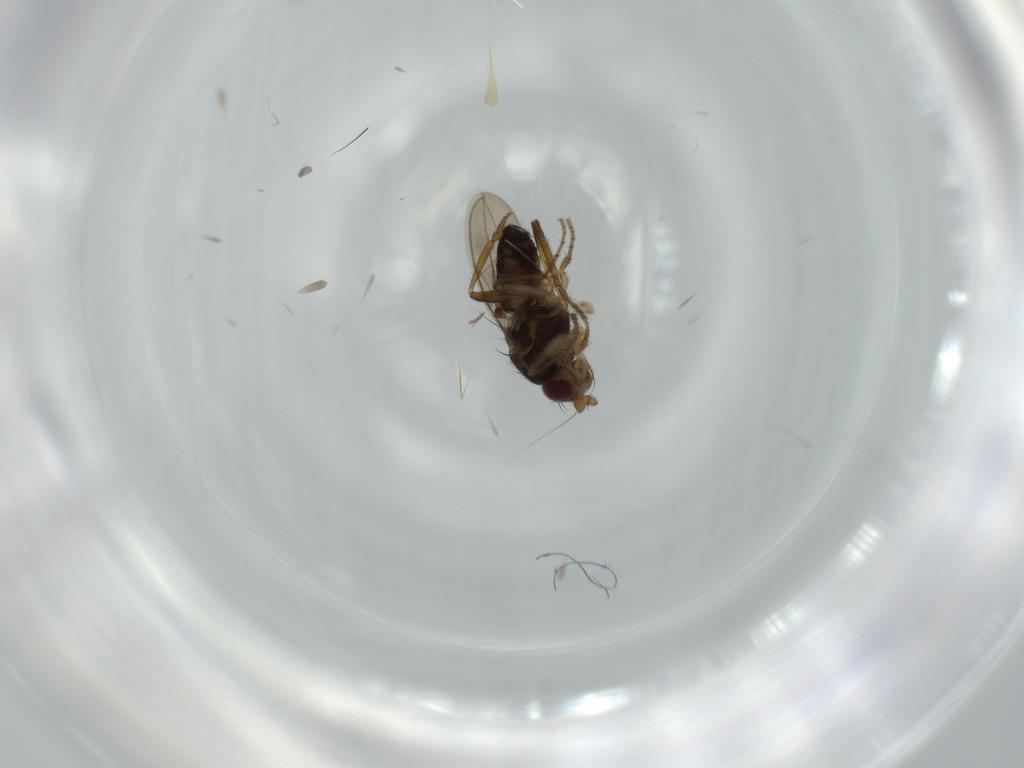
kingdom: Animalia
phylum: Arthropoda
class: Insecta
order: Diptera
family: Sphaeroceridae
